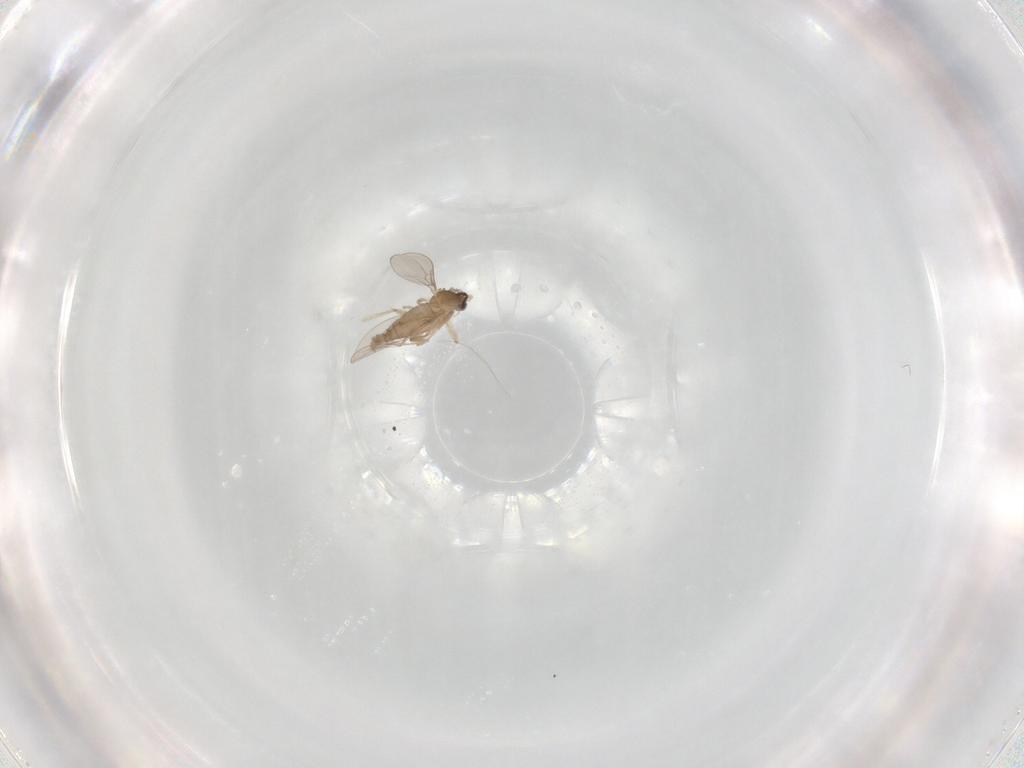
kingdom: Animalia
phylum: Arthropoda
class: Insecta
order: Diptera
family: Cecidomyiidae
